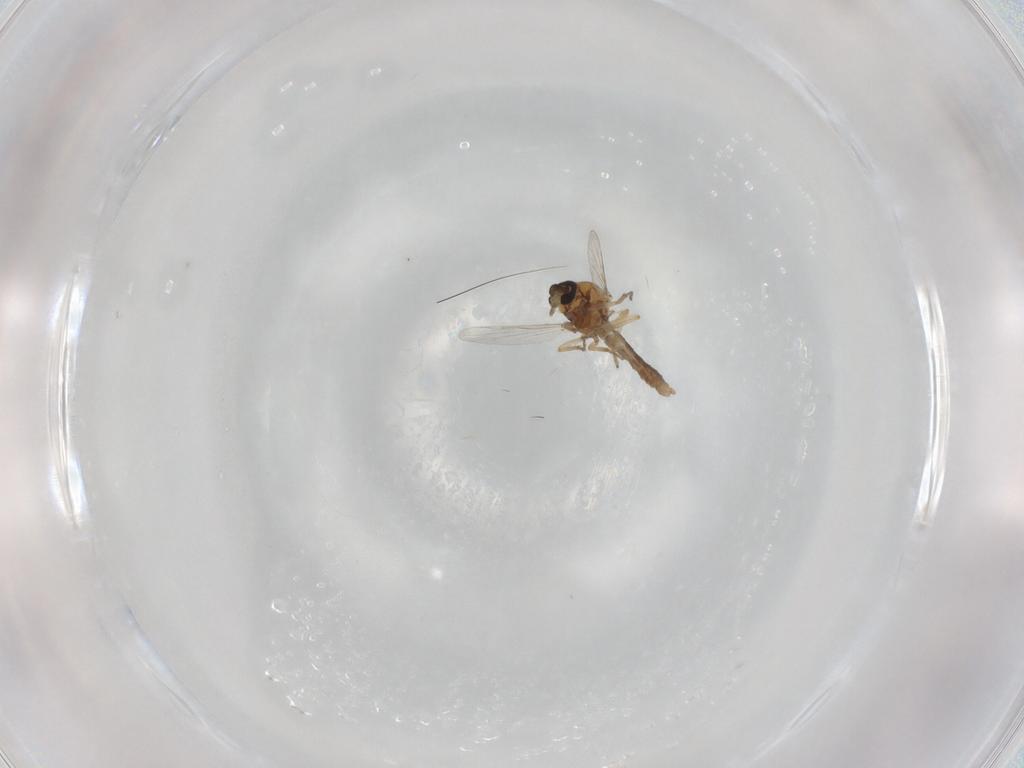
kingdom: Animalia
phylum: Arthropoda
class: Insecta
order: Diptera
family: Ceratopogonidae
